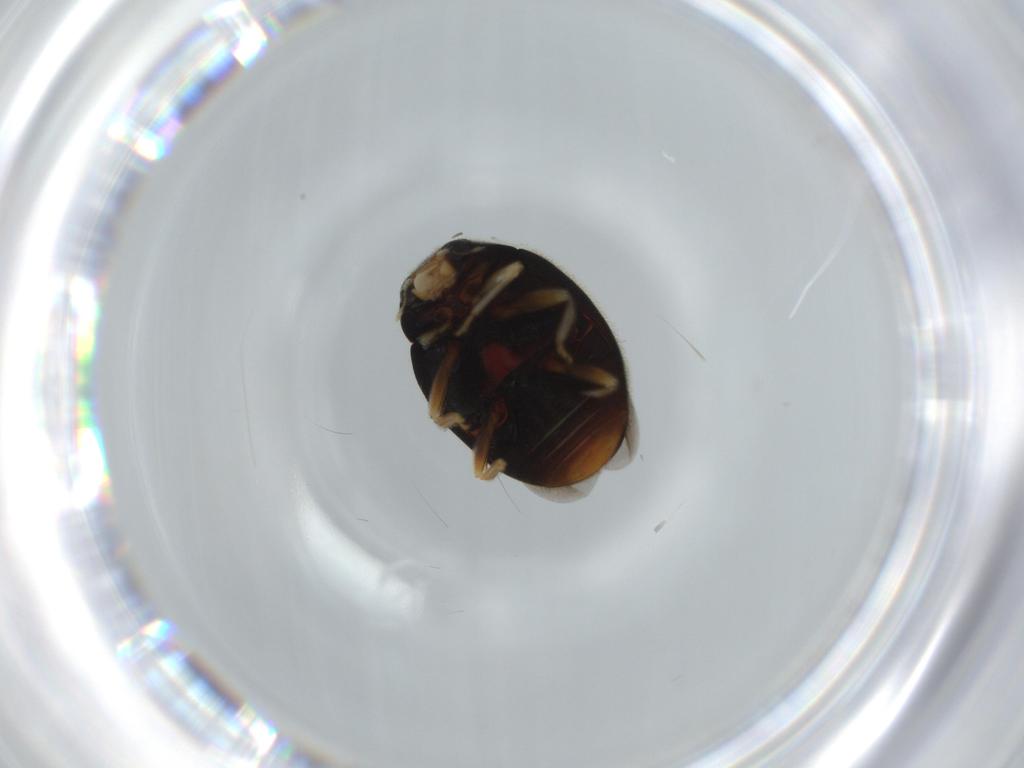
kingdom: Animalia
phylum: Arthropoda
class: Insecta
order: Coleoptera
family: Coccinellidae
